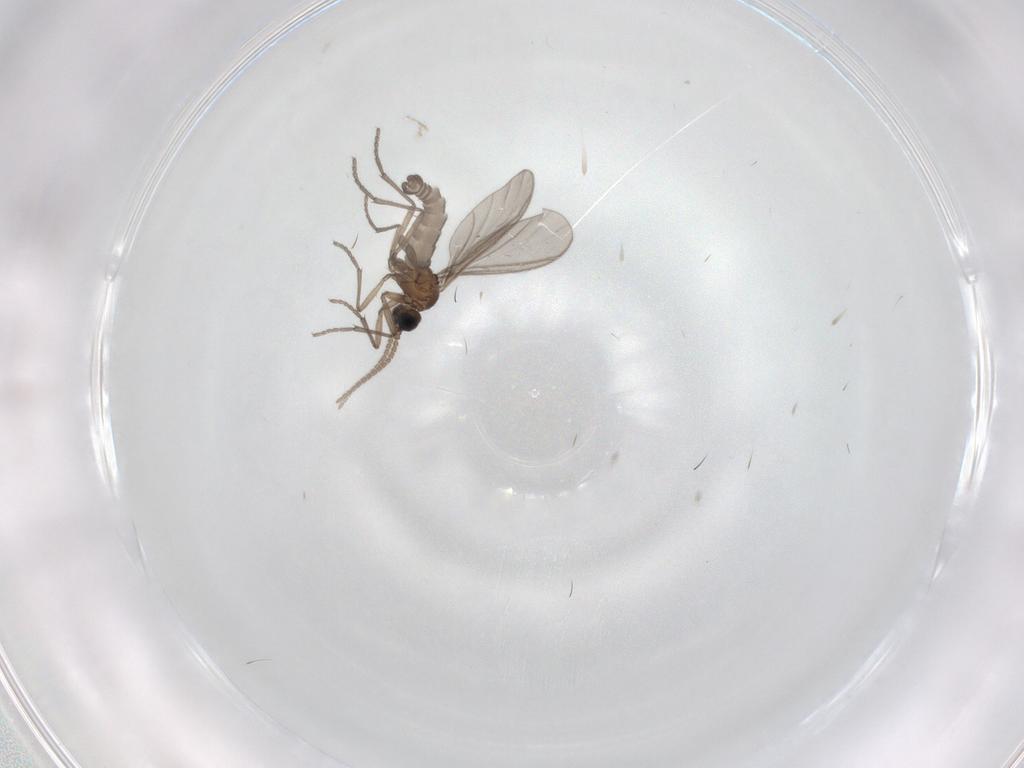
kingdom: Animalia
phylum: Arthropoda
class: Insecta
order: Diptera
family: Sciaridae
